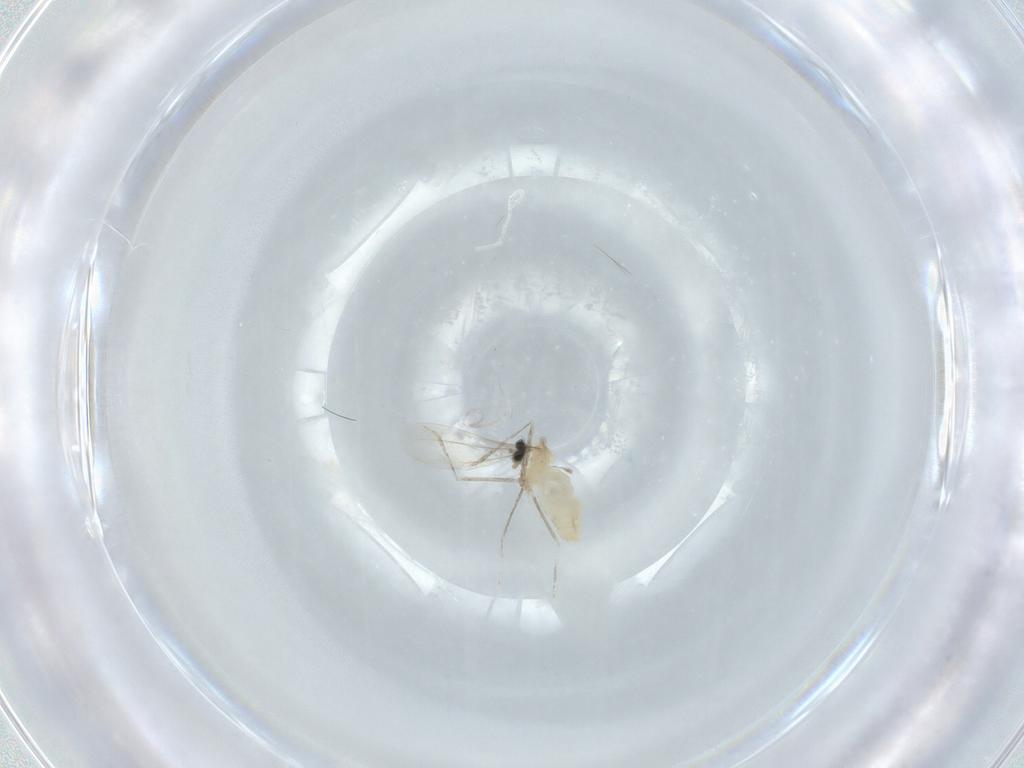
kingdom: Animalia
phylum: Arthropoda
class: Insecta
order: Diptera
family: Cecidomyiidae
